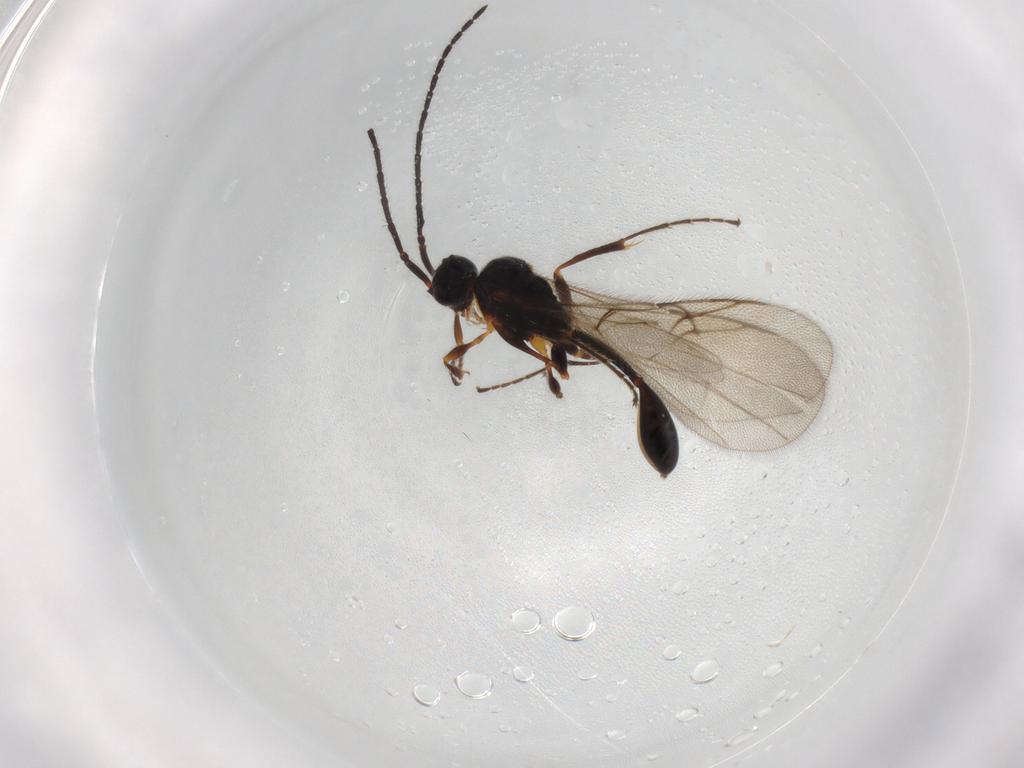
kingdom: Animalia
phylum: Arthropoda
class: Insecta
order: Hymenoptera
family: Diapriidae
